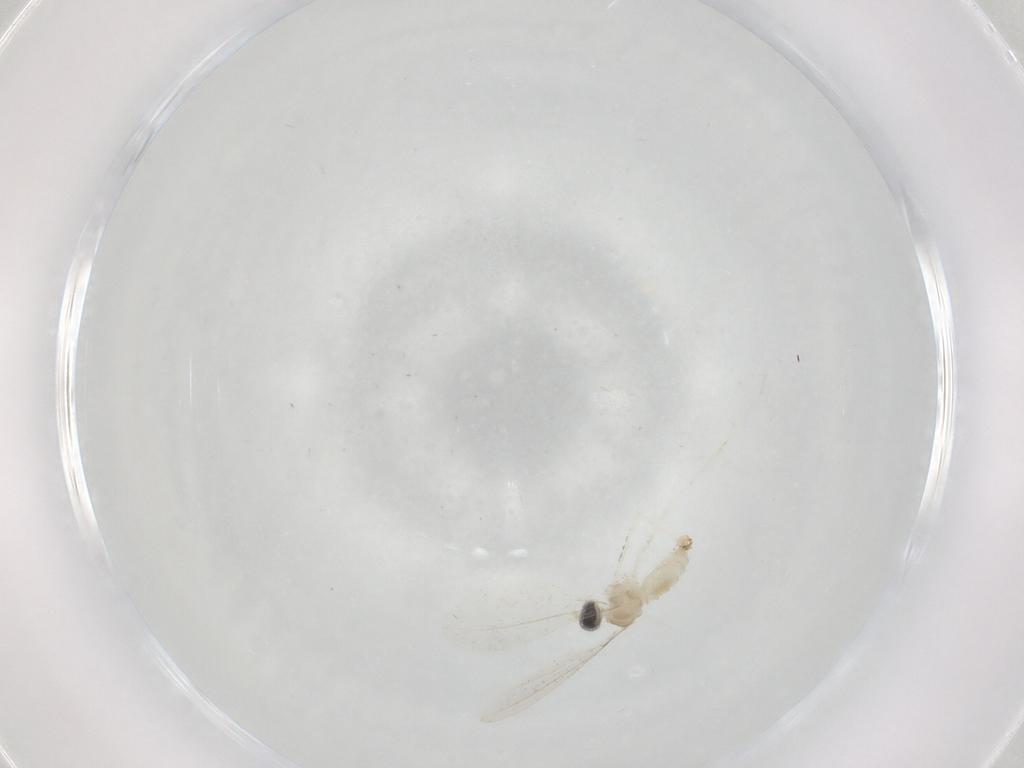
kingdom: Animalia
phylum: Arthropoda
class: Insecta
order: Diptera
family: Cecidomyiidae
